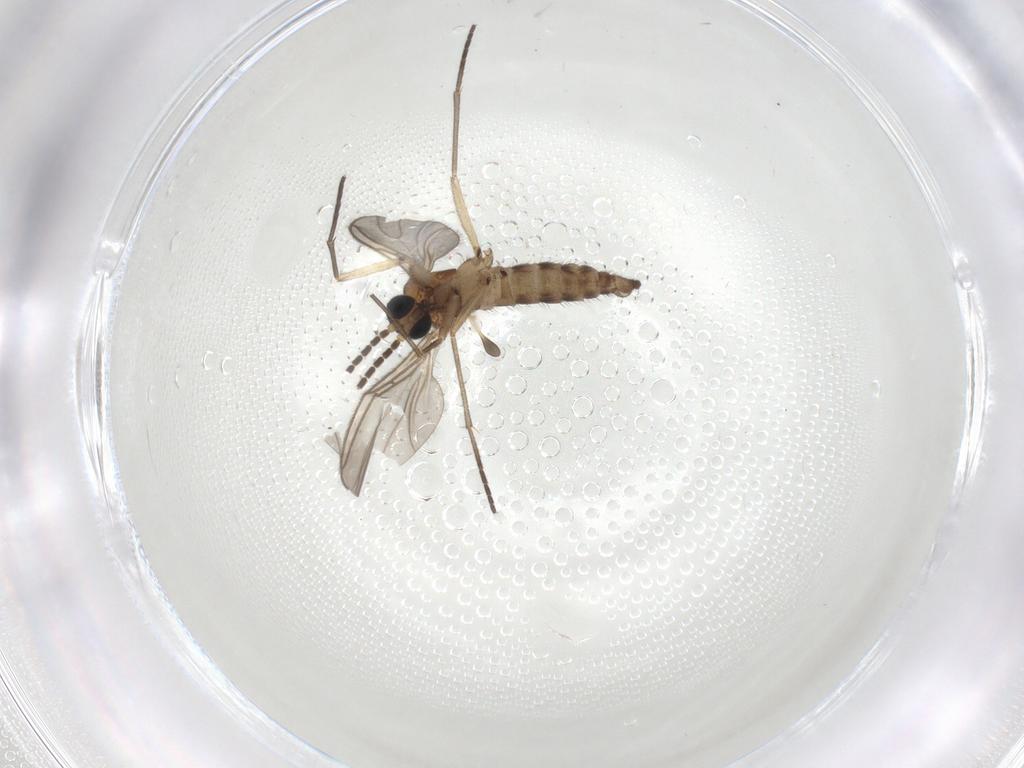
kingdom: Animalia
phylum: Arthropoda
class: Insecta
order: Diptera
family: Sciaridae
